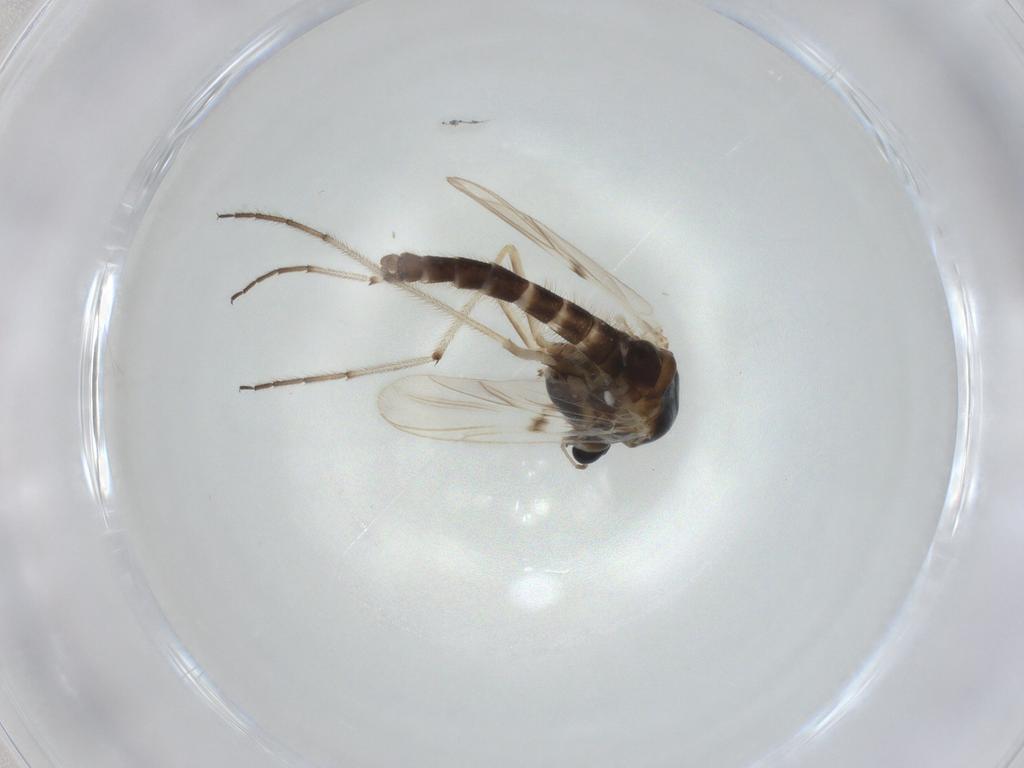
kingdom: Animalia
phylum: Arthropoda
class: Insecta
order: Diptera
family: Chironomidae
